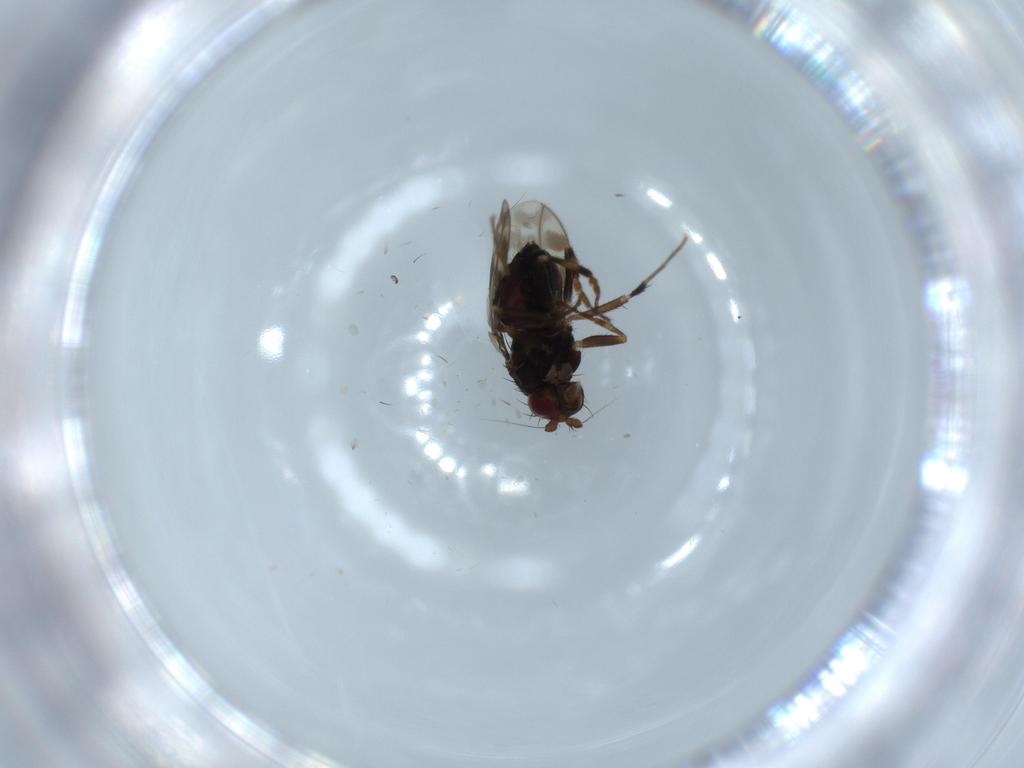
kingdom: Animalia
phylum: Arthropoda
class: Insecta
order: Diptera
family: Sphaeroceridae
